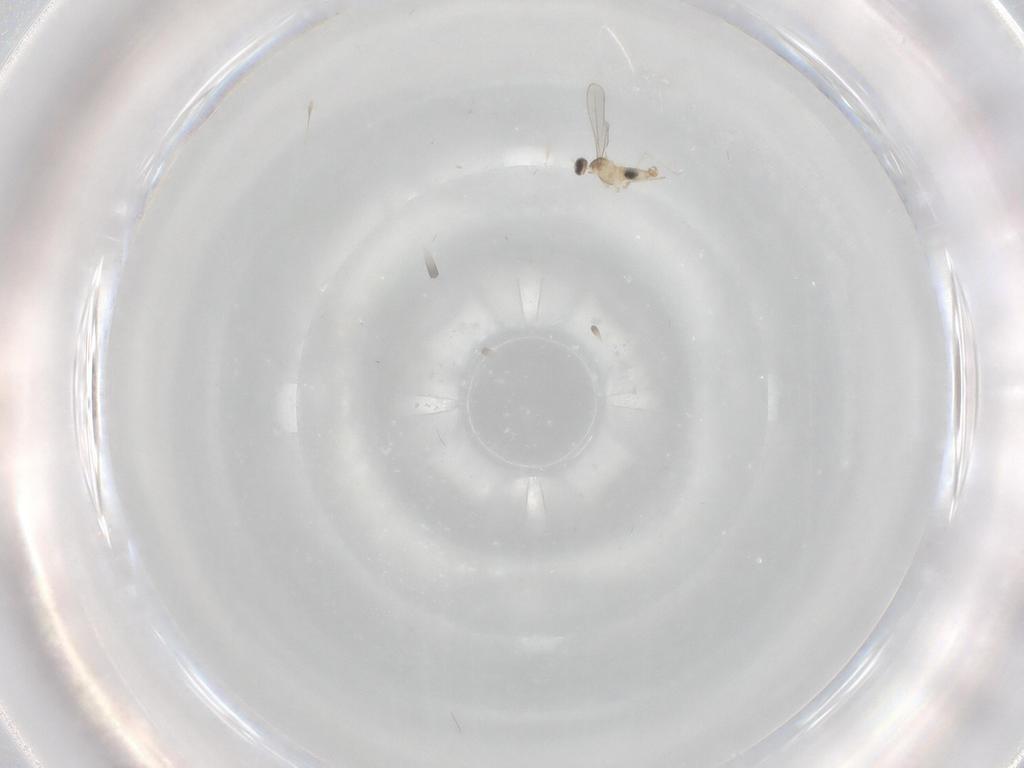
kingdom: Animalia
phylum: Arthropoda
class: Insecta
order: Diptera
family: Cecidomyiidae
